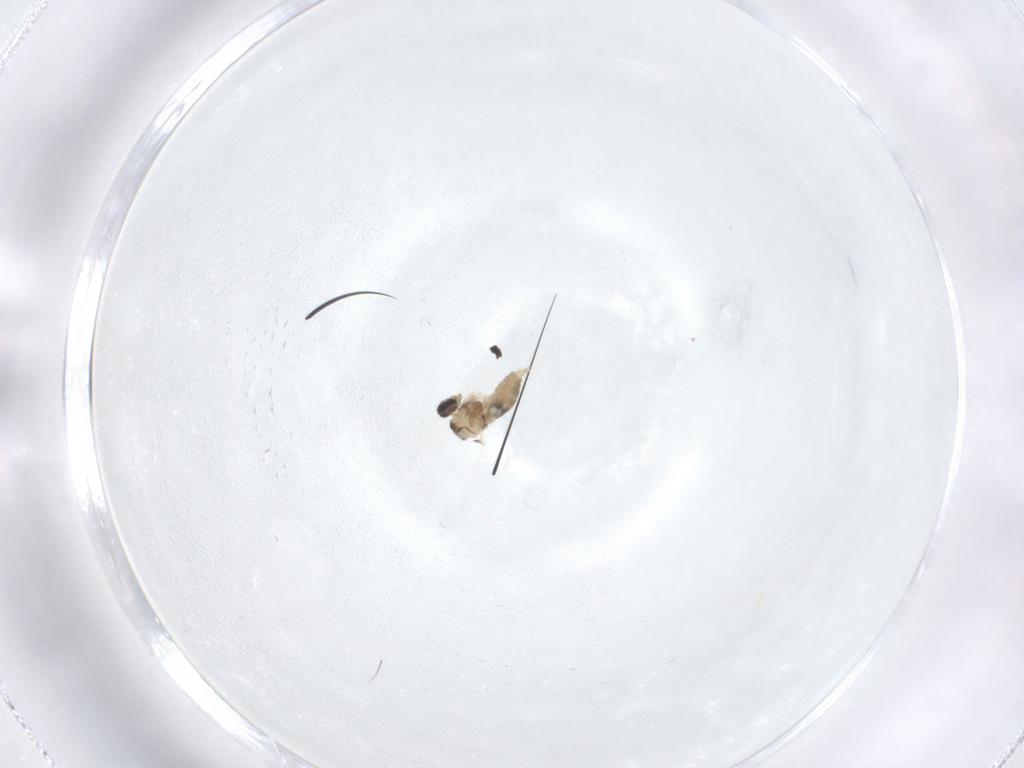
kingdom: Animalia
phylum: Arthropoda
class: Insecta
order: Diptera
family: Cecidomyiidae
